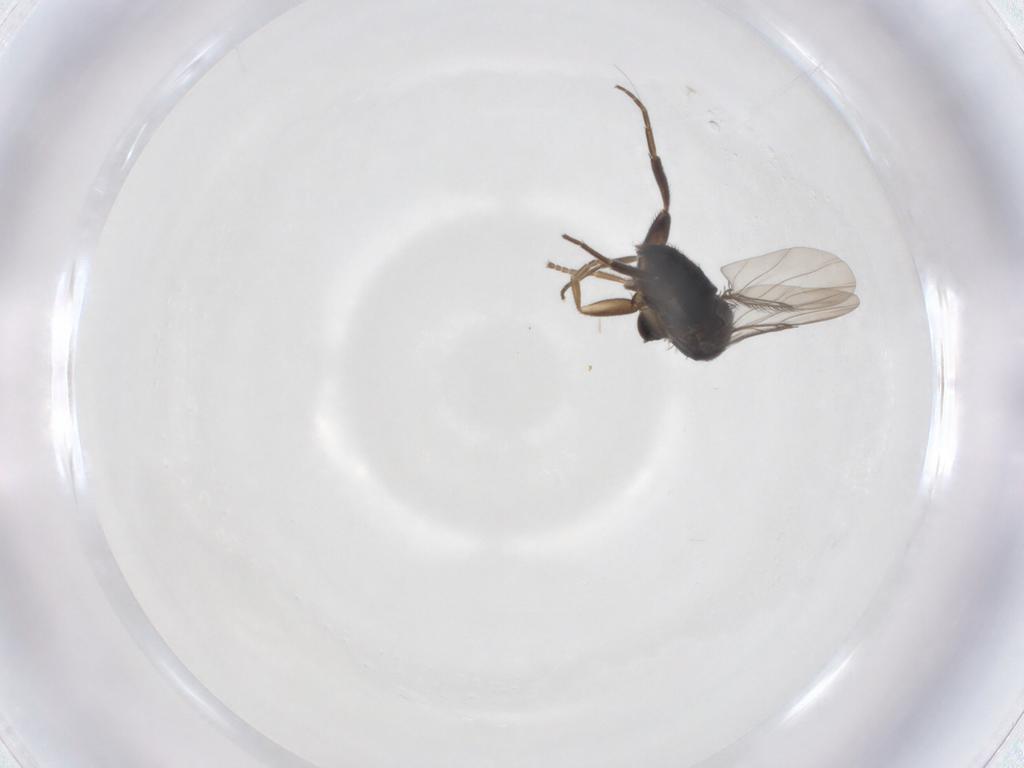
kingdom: Animalia
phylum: Arthropoda
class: Insecta
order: Diptera
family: Phoridae
